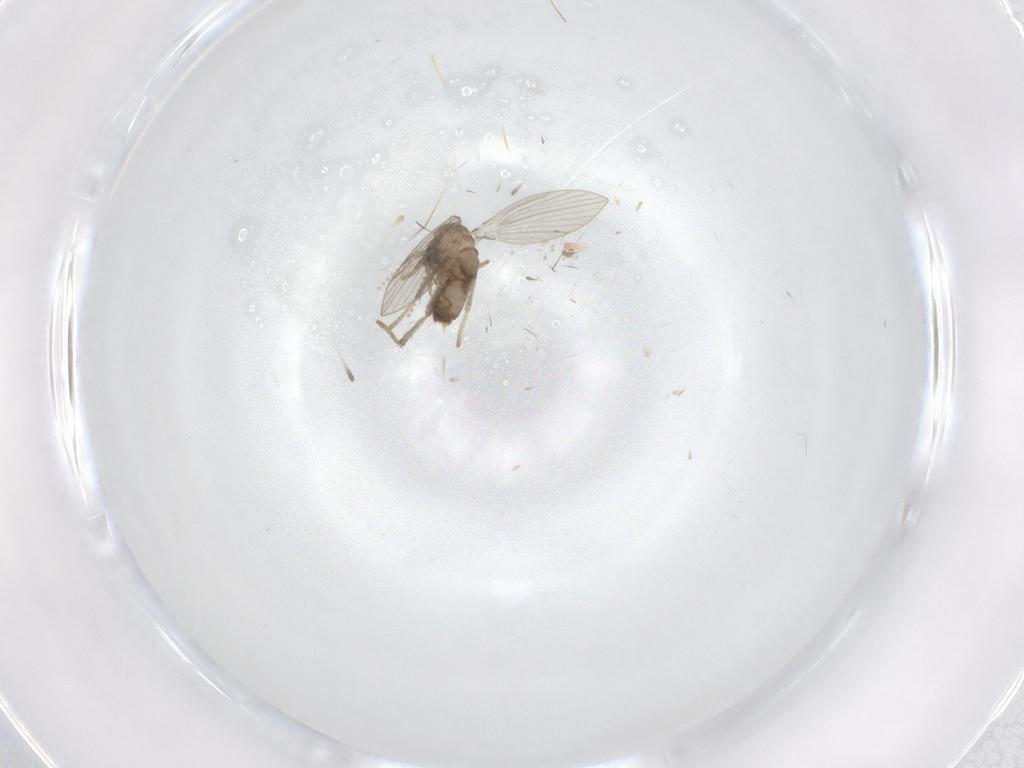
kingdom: Animalia
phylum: Arthropoda
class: Insecta
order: Diptera
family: Psychodidae
